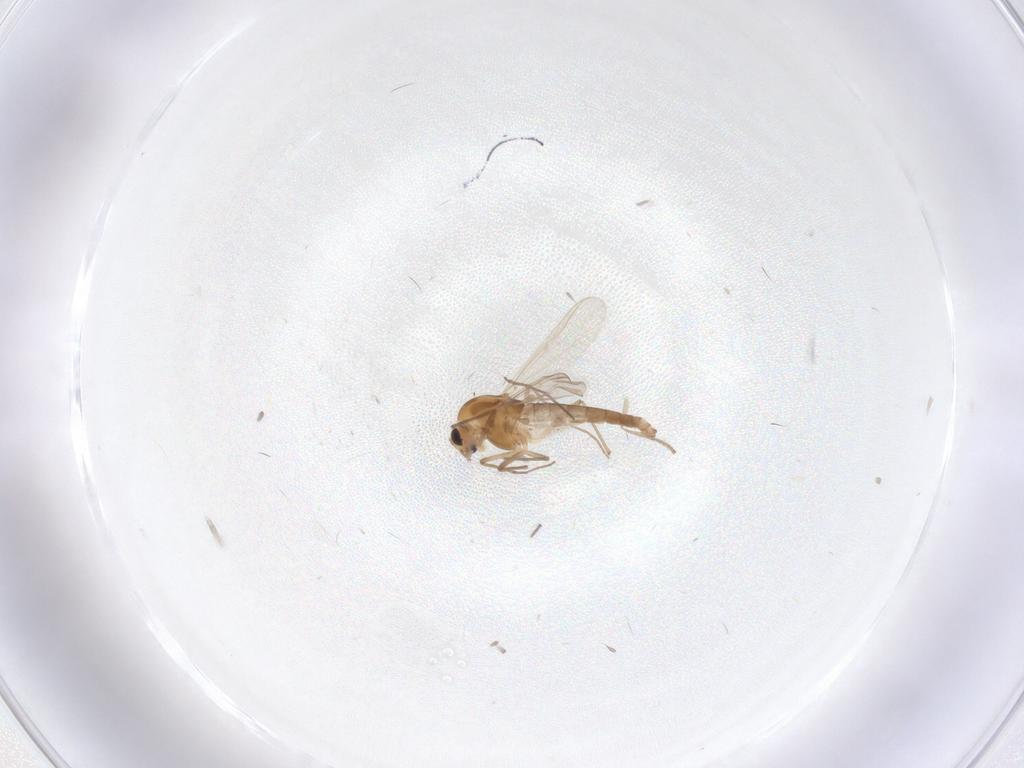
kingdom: Animalia
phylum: Arthropoda
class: Insecta
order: Diptera
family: Chironomidae
